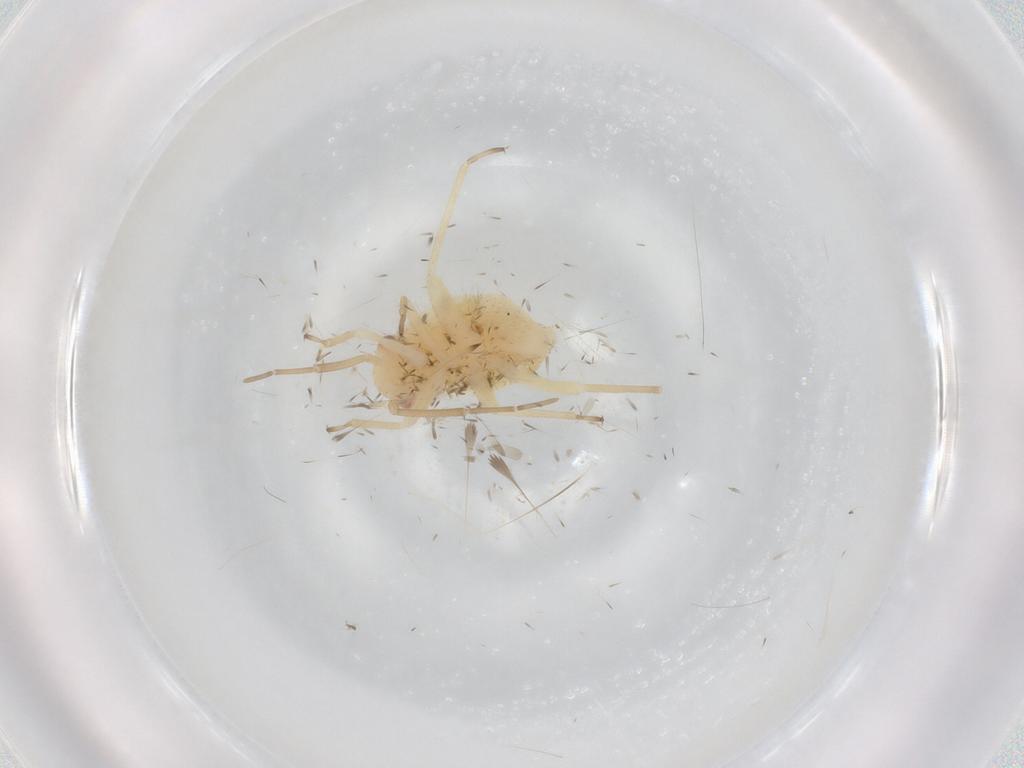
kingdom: Animalia
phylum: Arthropoda
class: Insecta
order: Hemiptera
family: Miridae
